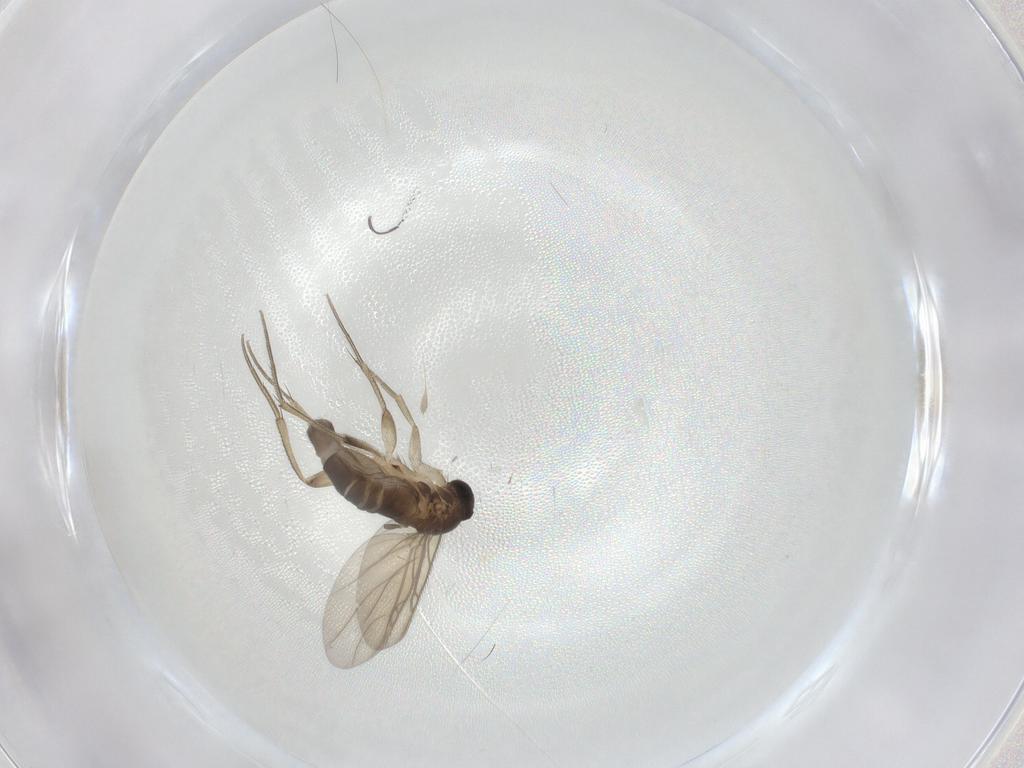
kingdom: Animalia
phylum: Arthropoda
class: Insecta
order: Diptera
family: Phoridae
